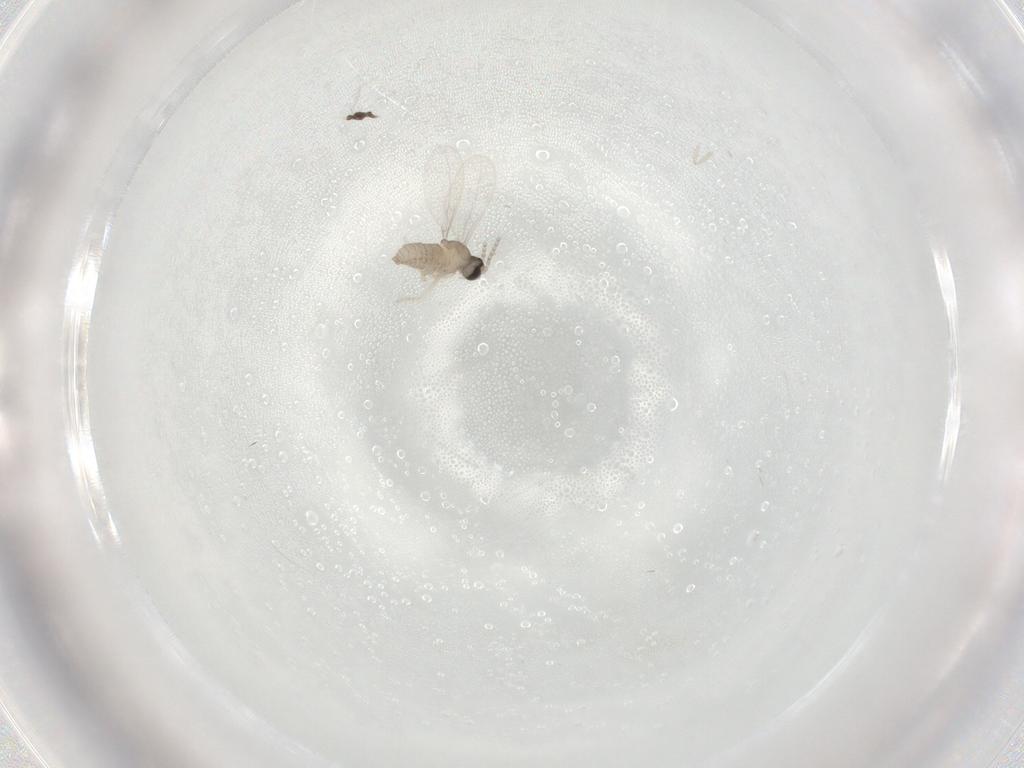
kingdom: Animalia
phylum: Arthropoda
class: Insecta
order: Diptera
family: Cecidomyiidae
